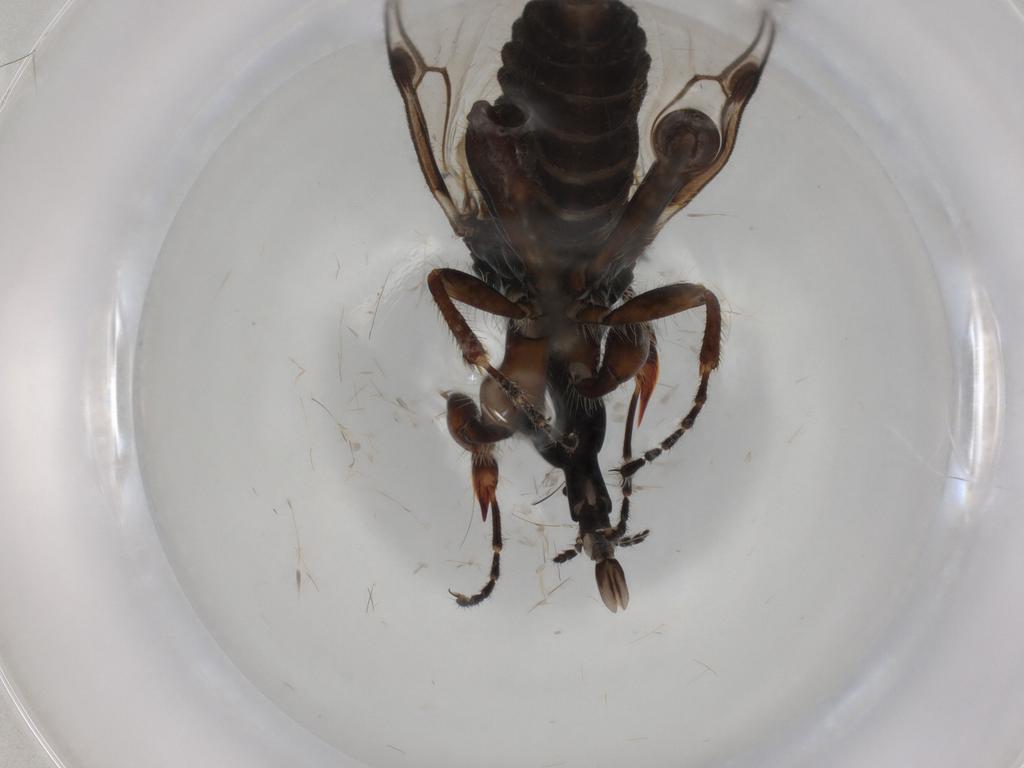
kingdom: Animalia
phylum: Arthropoda
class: Insecta
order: Diptera
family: Bibionidae
